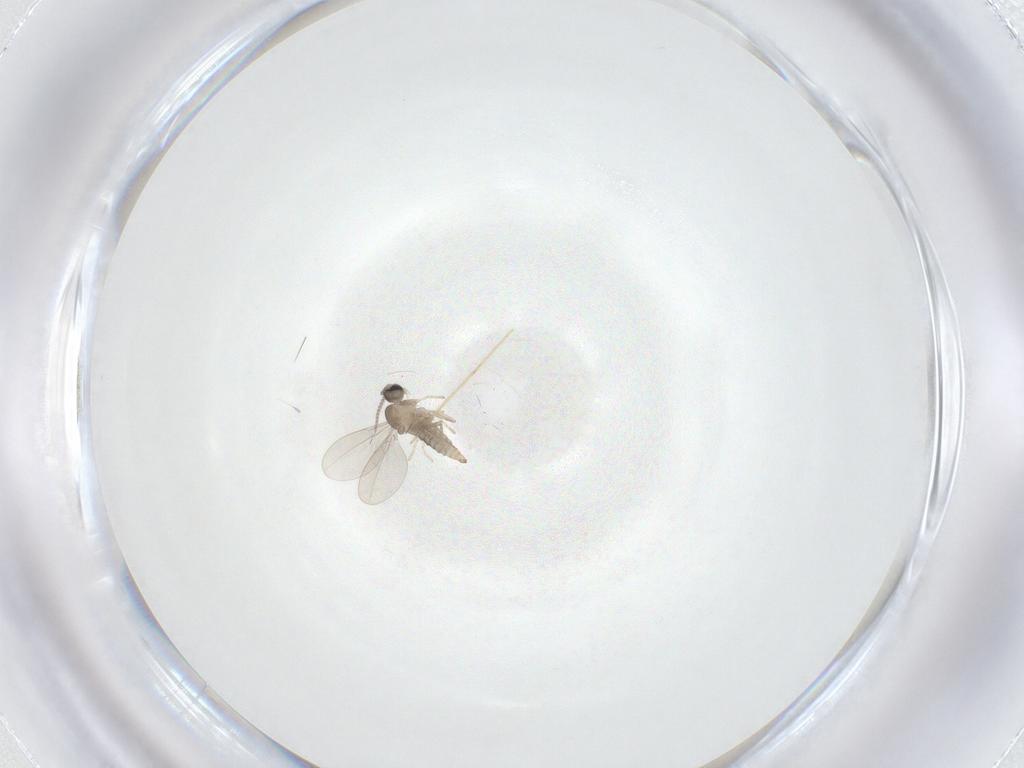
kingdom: Animalia
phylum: Arthropoda
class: Insecta
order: Diptera
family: Cecidomyiidae
